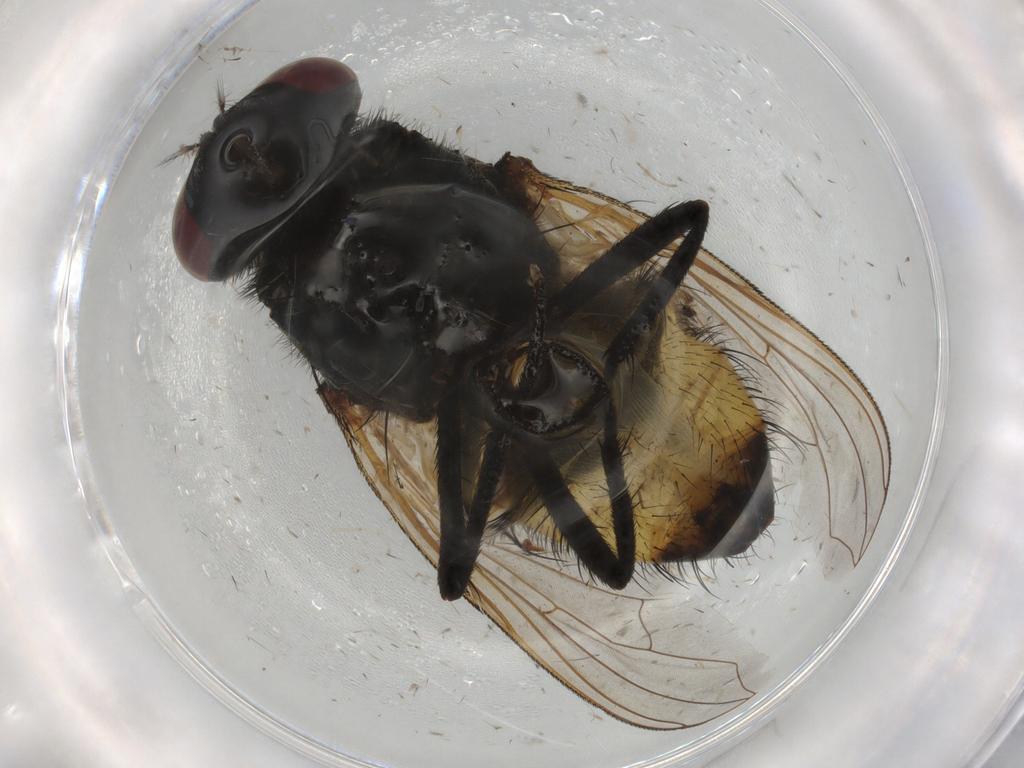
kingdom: Animalia
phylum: Arthropoda
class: Insecta
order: Diptera
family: Muscidae
